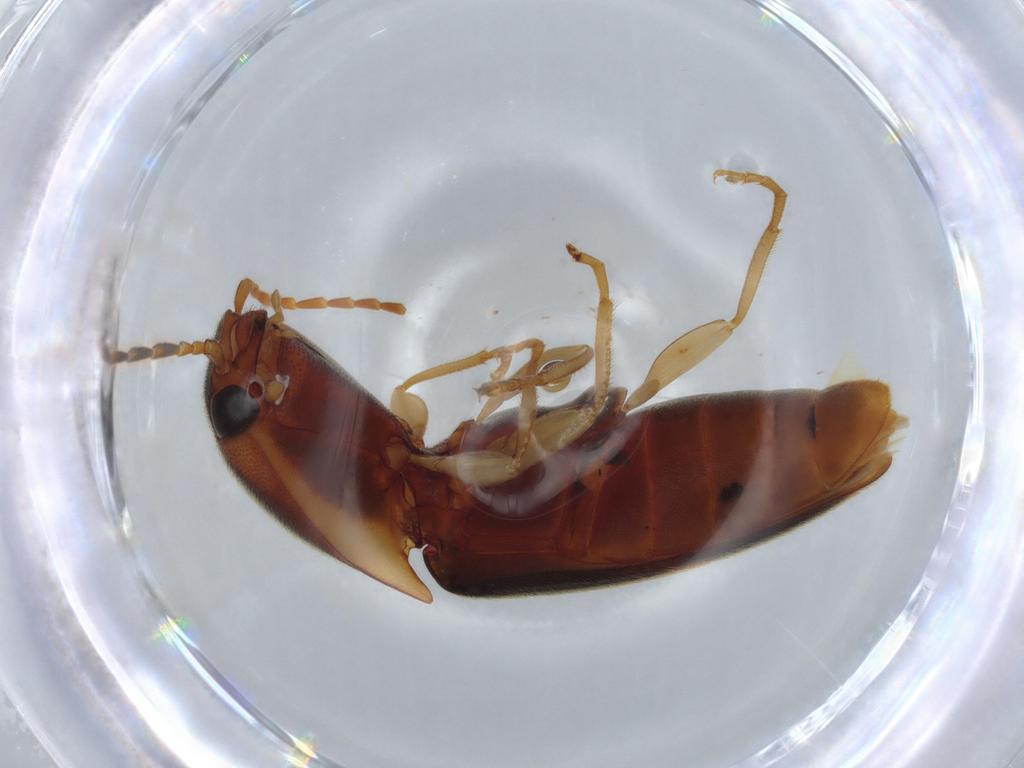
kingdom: Animalia
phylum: Arthropoda
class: Insecta
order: Coleoptera
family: Elateridae
